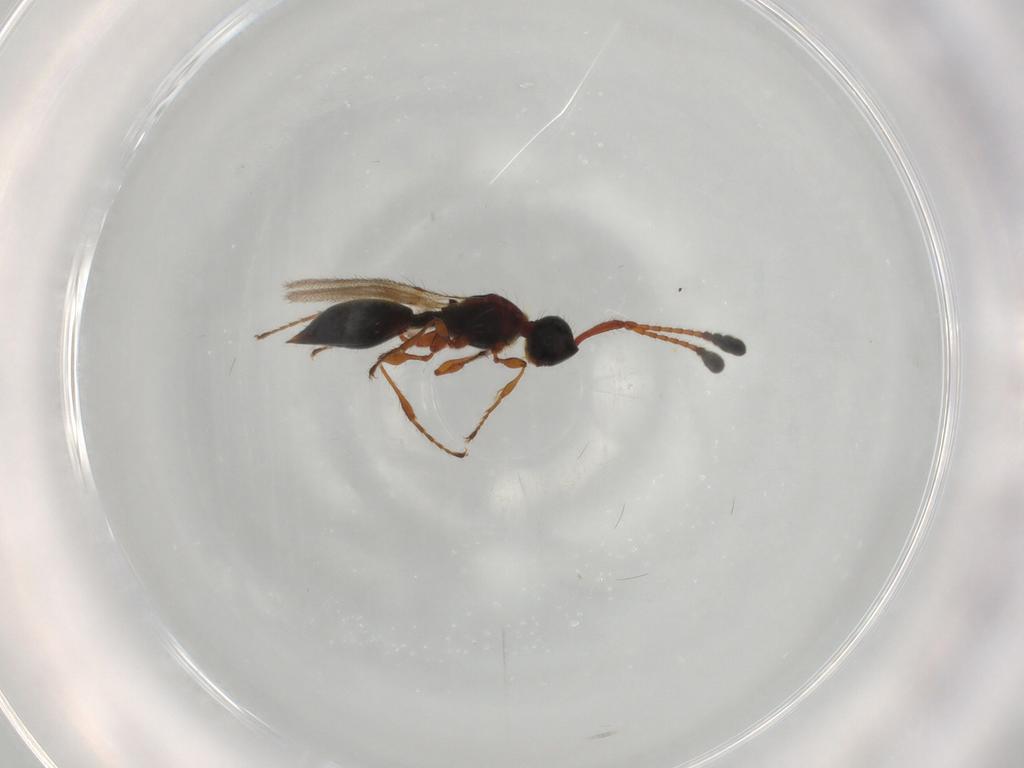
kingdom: Animalia
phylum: Arthropoda
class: Insecta
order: Hymenoptera
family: Diapriidae
